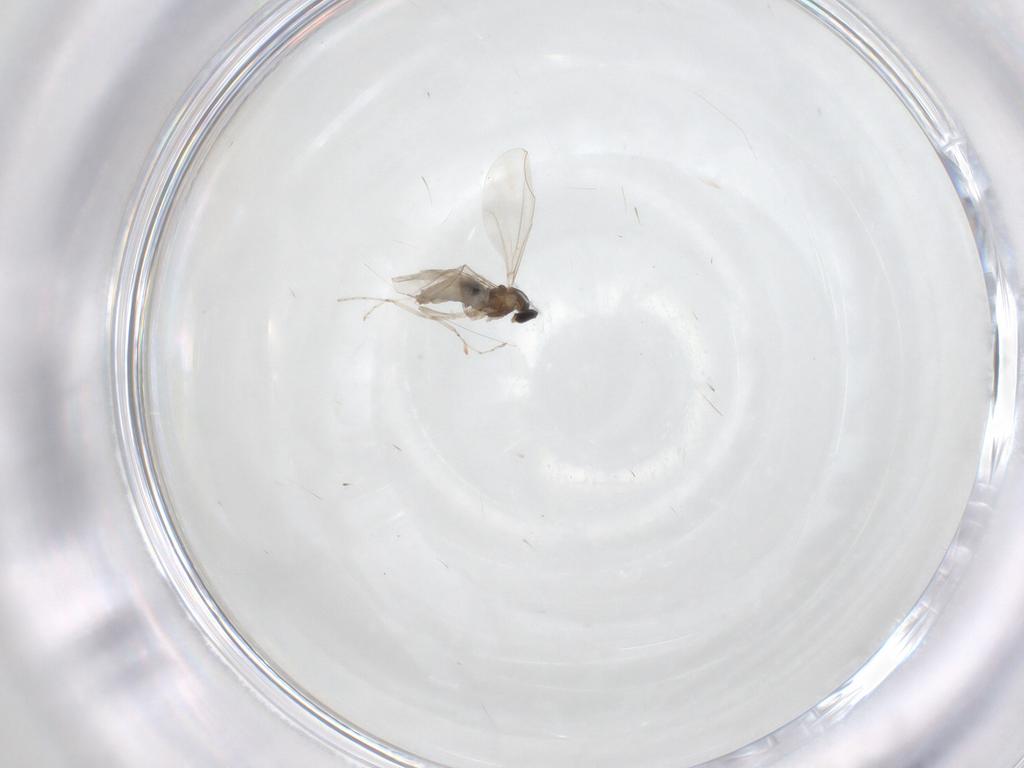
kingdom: Animalia
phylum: Arthropoda
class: Insecta
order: Diptera
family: Cecidomyiidae
